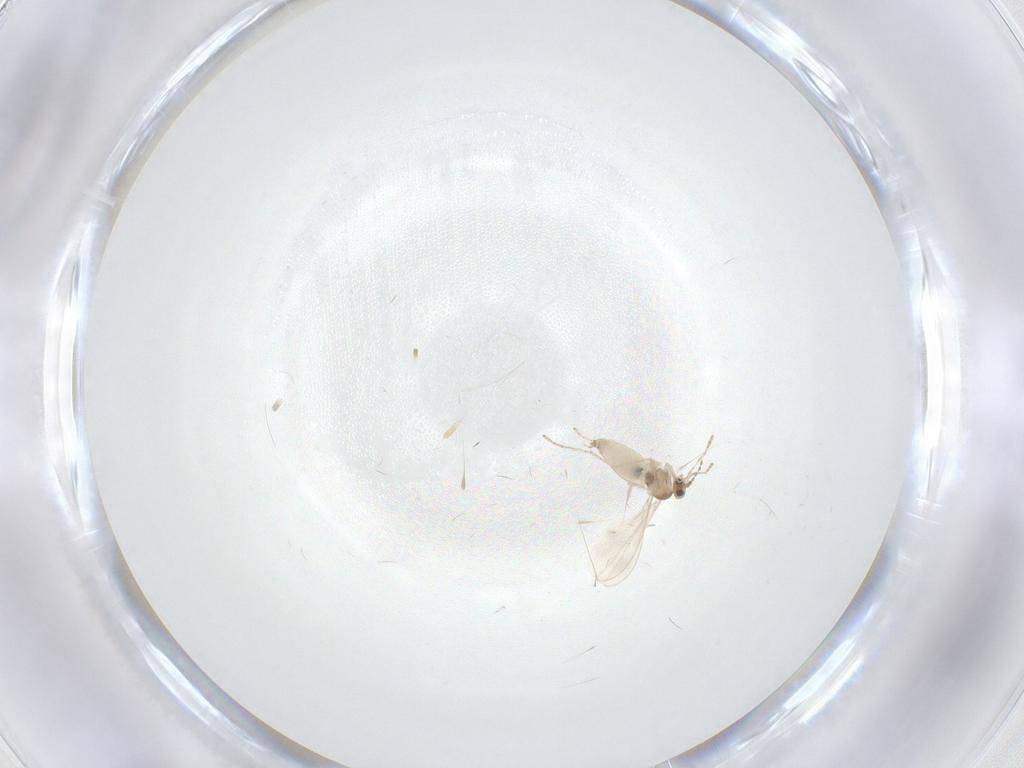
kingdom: Animalia
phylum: Arthropoda
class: Insecta
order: Diptera
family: Cecidomyiidae
